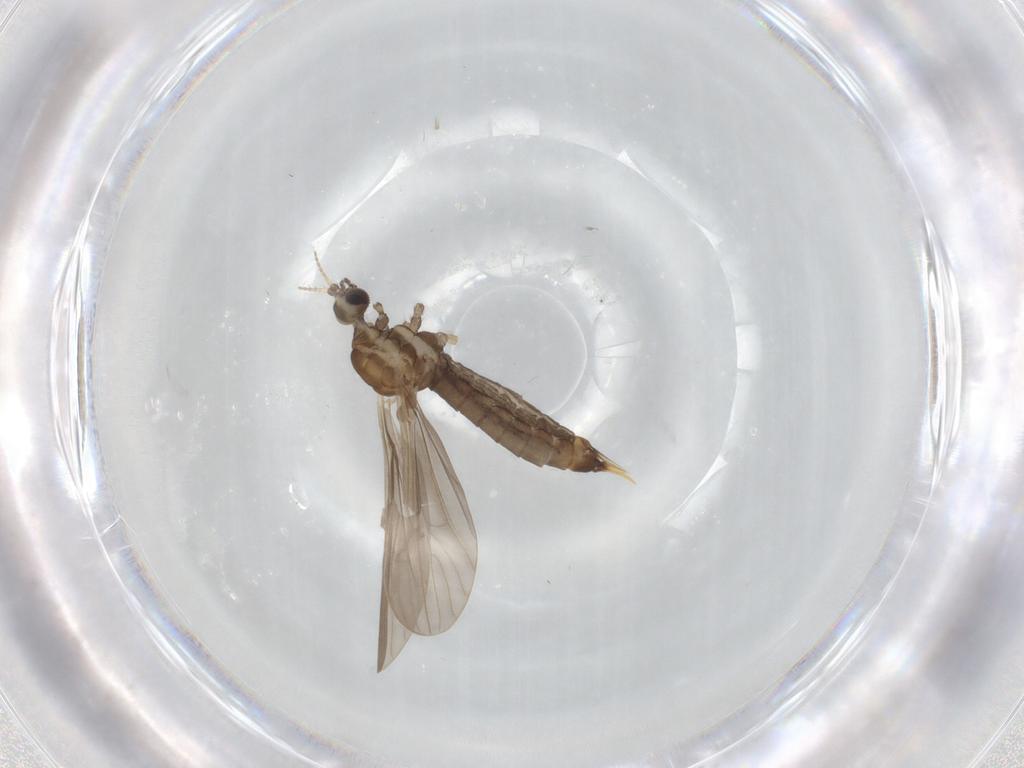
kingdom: Animalia
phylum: Arthropoda
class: Insecta
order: Diptera
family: Limoniidae
